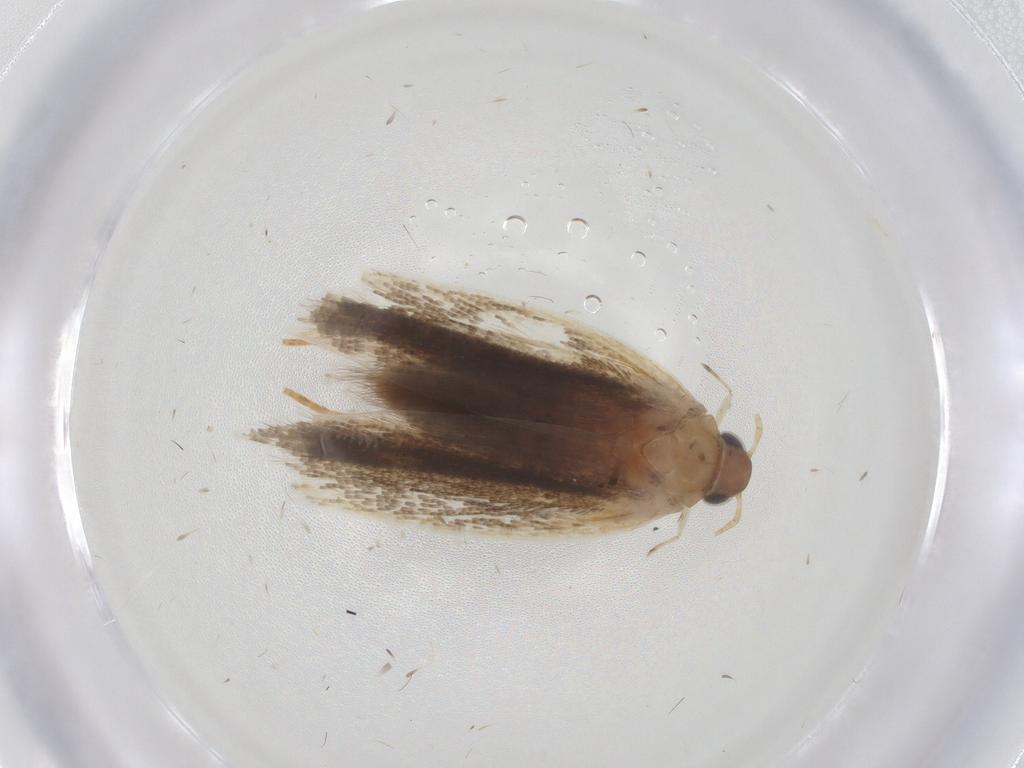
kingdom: Animalia
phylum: Arthropoda
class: Insecta
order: Lepidoptera
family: Gelechiidae
